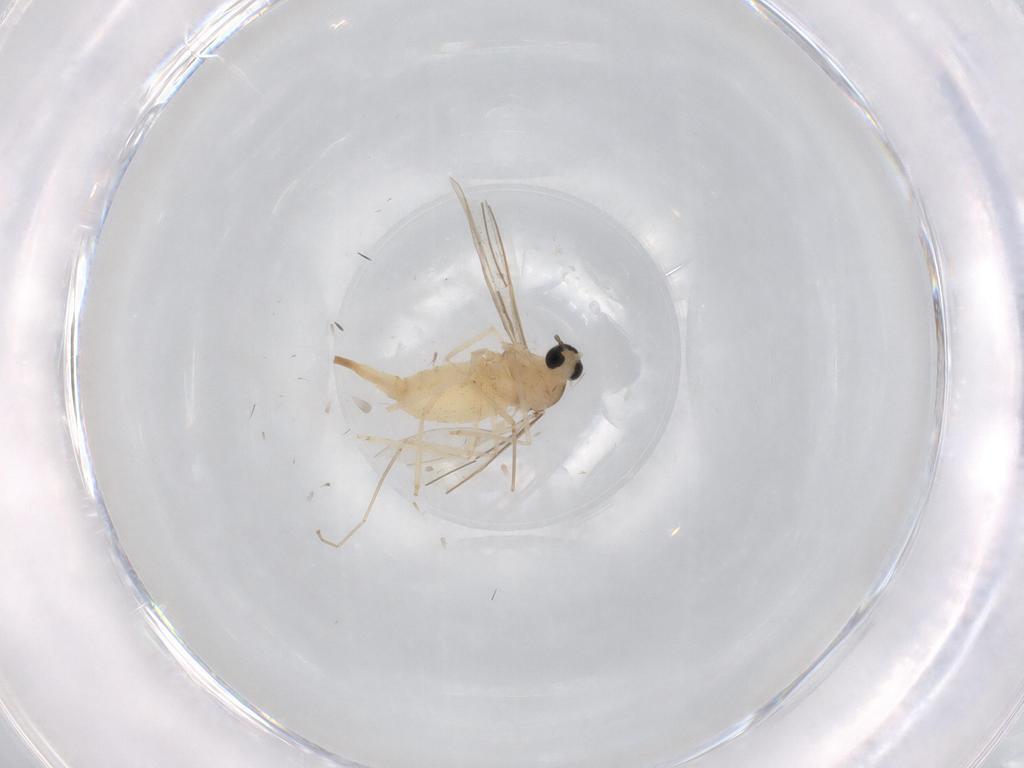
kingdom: Animalia
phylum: Arthropoda
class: Insecta
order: Diptera
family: Cecidomyiidae
